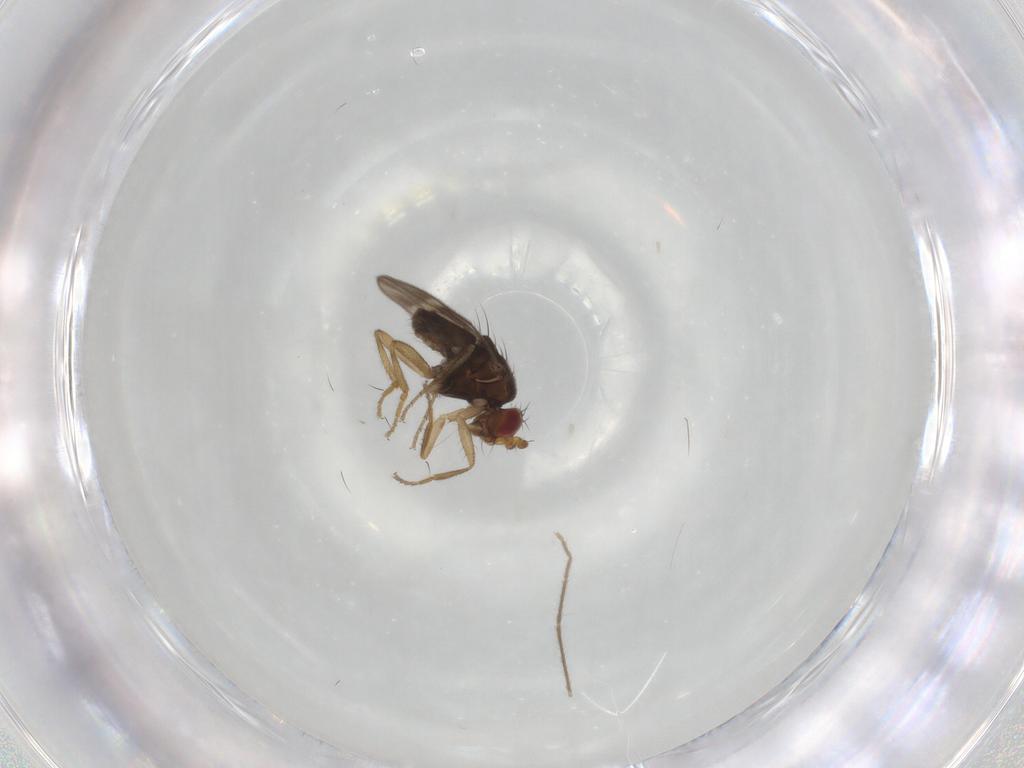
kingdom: Animalia
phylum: Arthropoda
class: Insecta
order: Diptera
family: Sphaeroceridae
